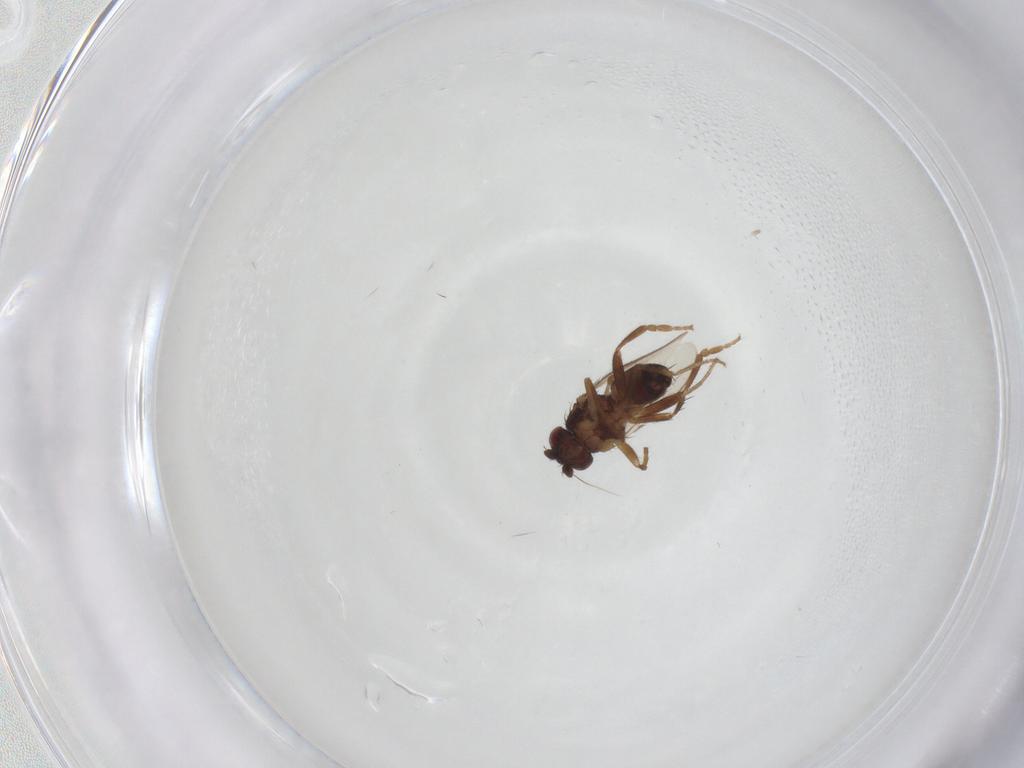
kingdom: Animalia
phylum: Arthropoda
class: Insecta
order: Diptera
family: Sphaeroceridae
